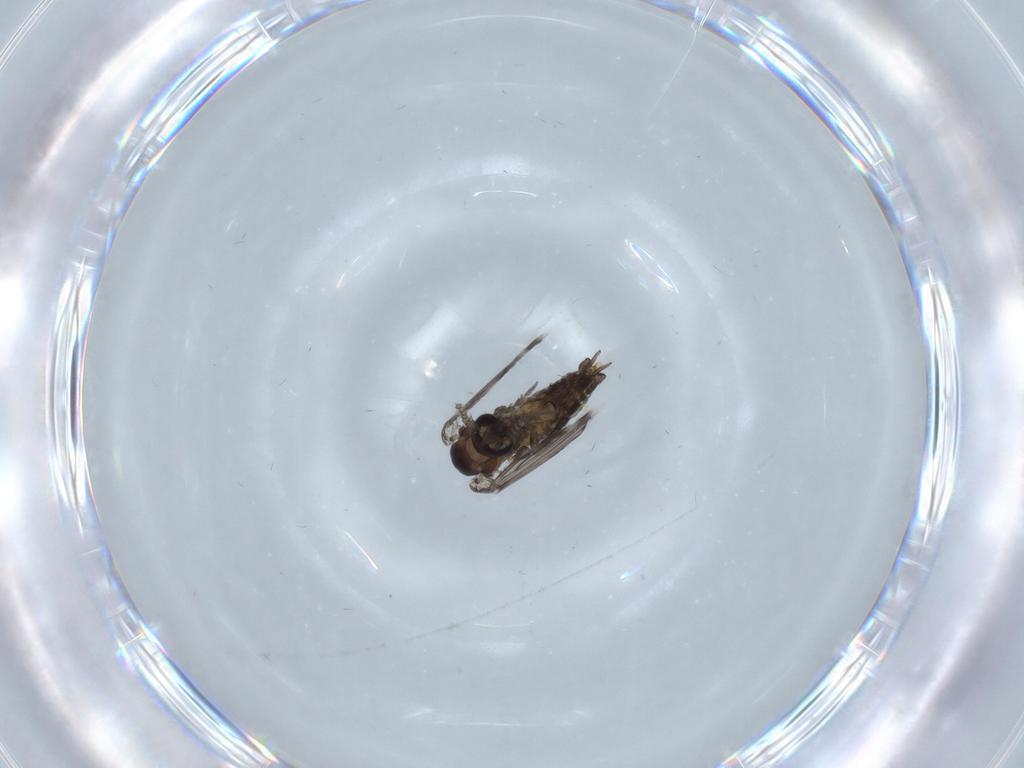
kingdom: Animalia
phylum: Arthropoda
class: Insecta
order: Diptera
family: Psychodidae
